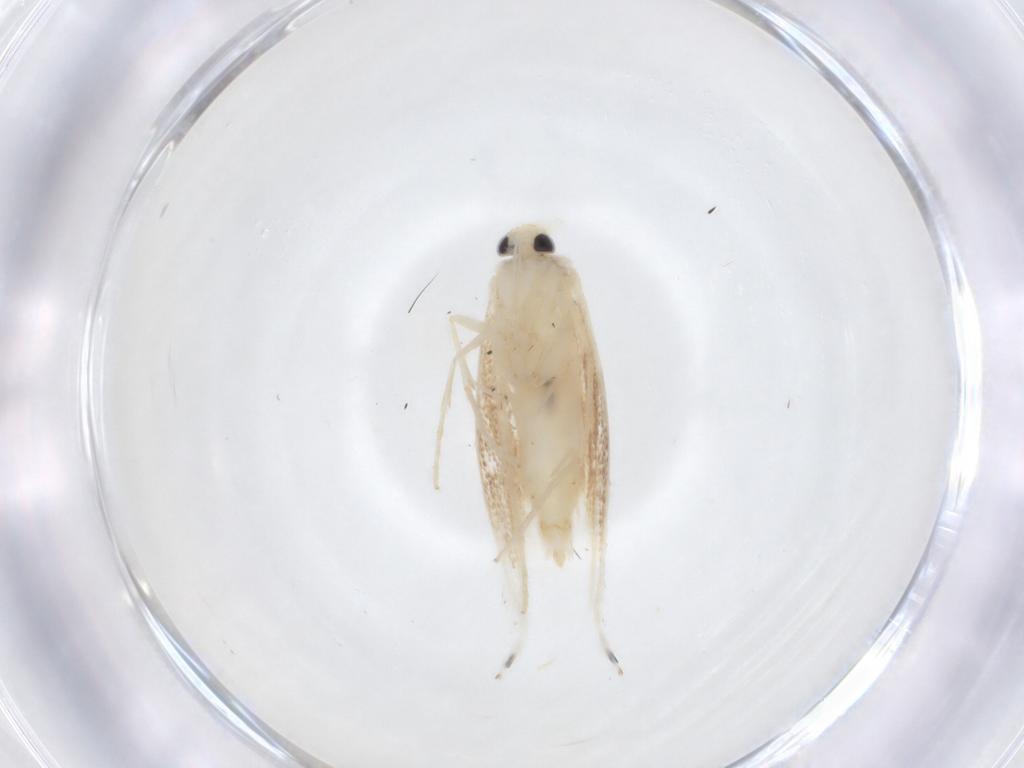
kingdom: Animalia
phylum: Arthropoda
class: Insecta
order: Lepidoptera
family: Gracillariidae
